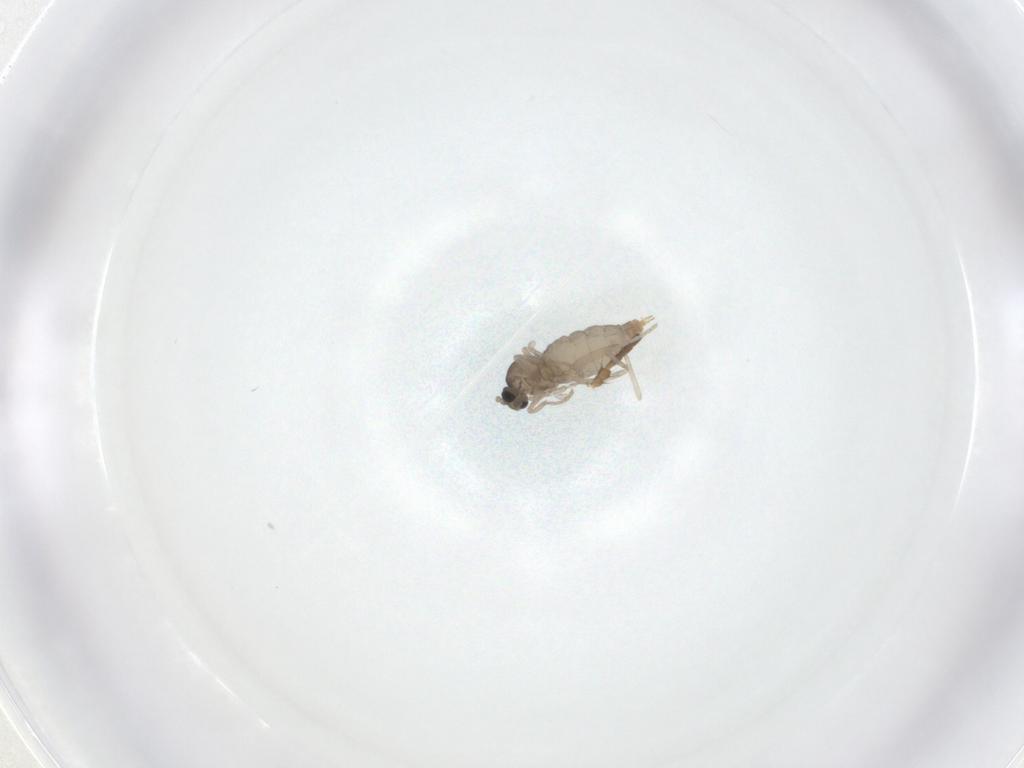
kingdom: Animalia
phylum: Arthropoda
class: Insecta
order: Diptera
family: Cecidomyiidae
